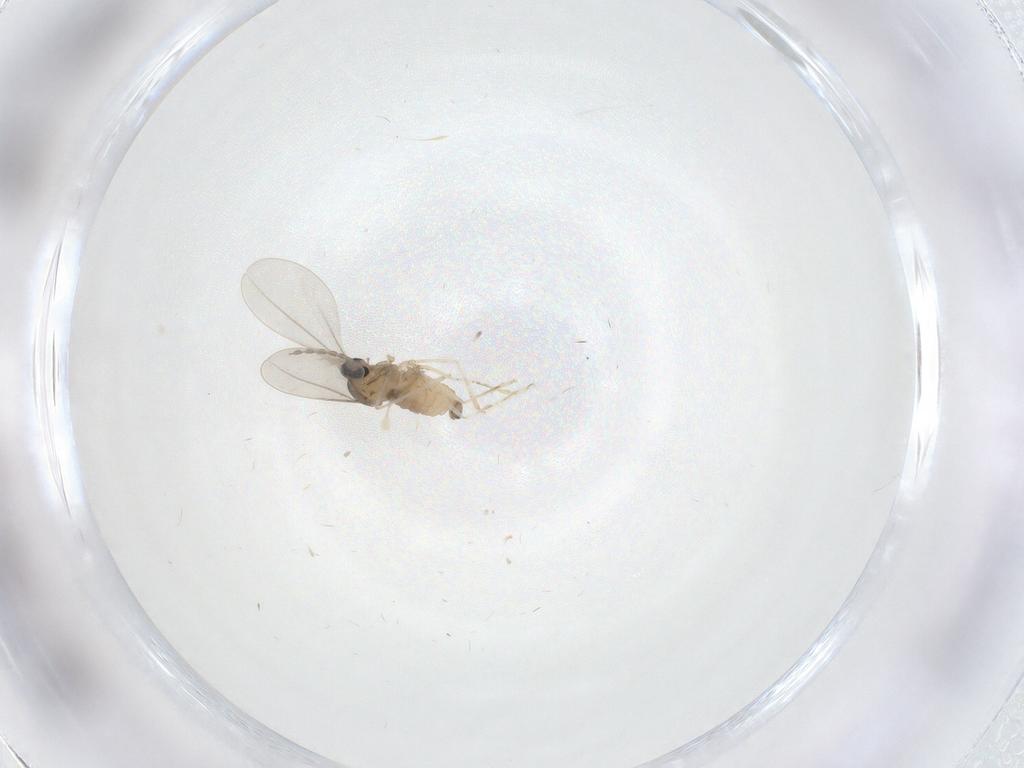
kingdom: Animalia
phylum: Arthropoda
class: Insecta
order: Diptera
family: Cecidomyiidae
